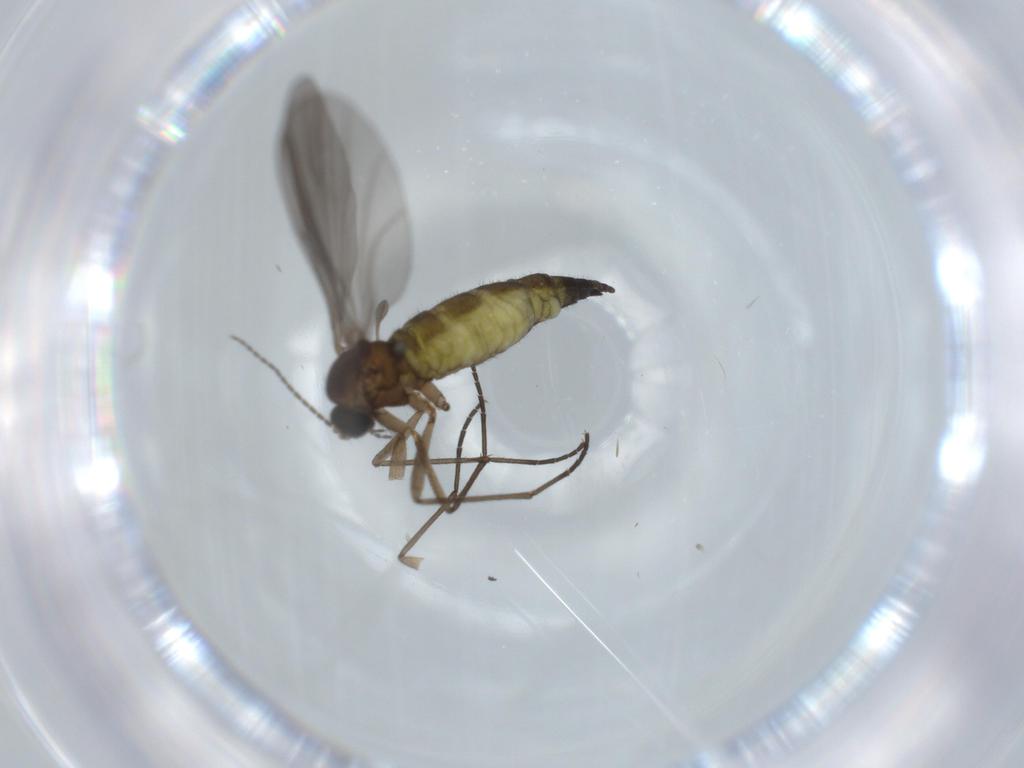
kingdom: Animalia
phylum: Arthropoda
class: Insecta
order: Diptera
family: Sciaridae
